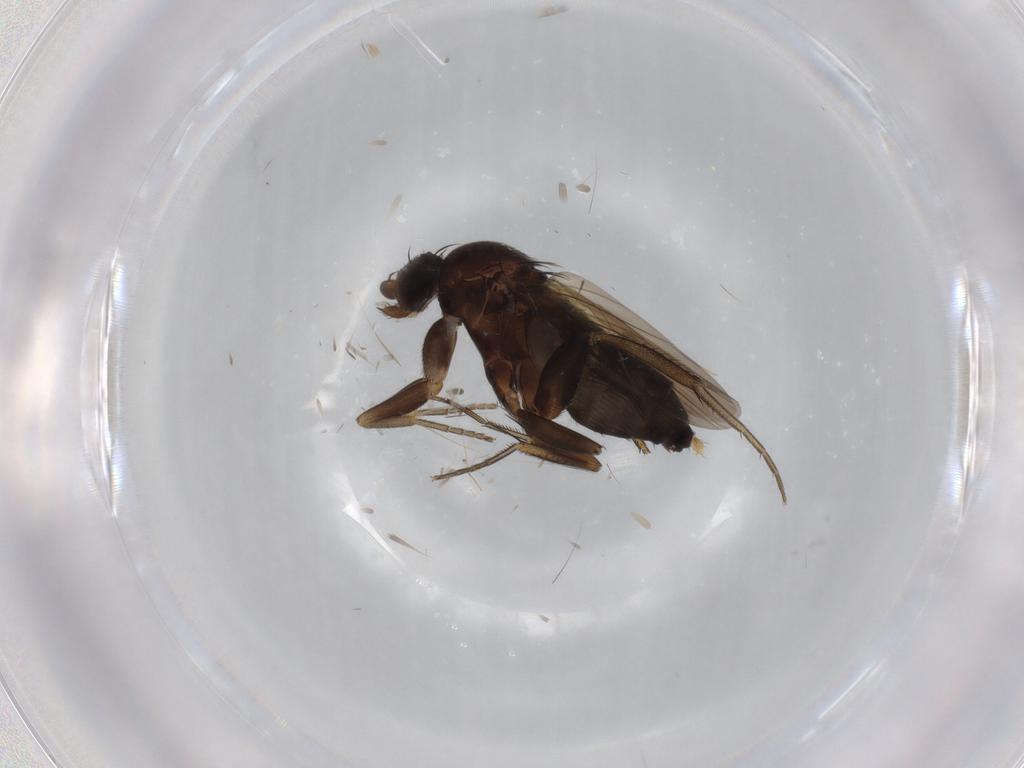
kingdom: Animalia
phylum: Arthropoda
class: Insecta
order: Diptera
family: Phoridae
